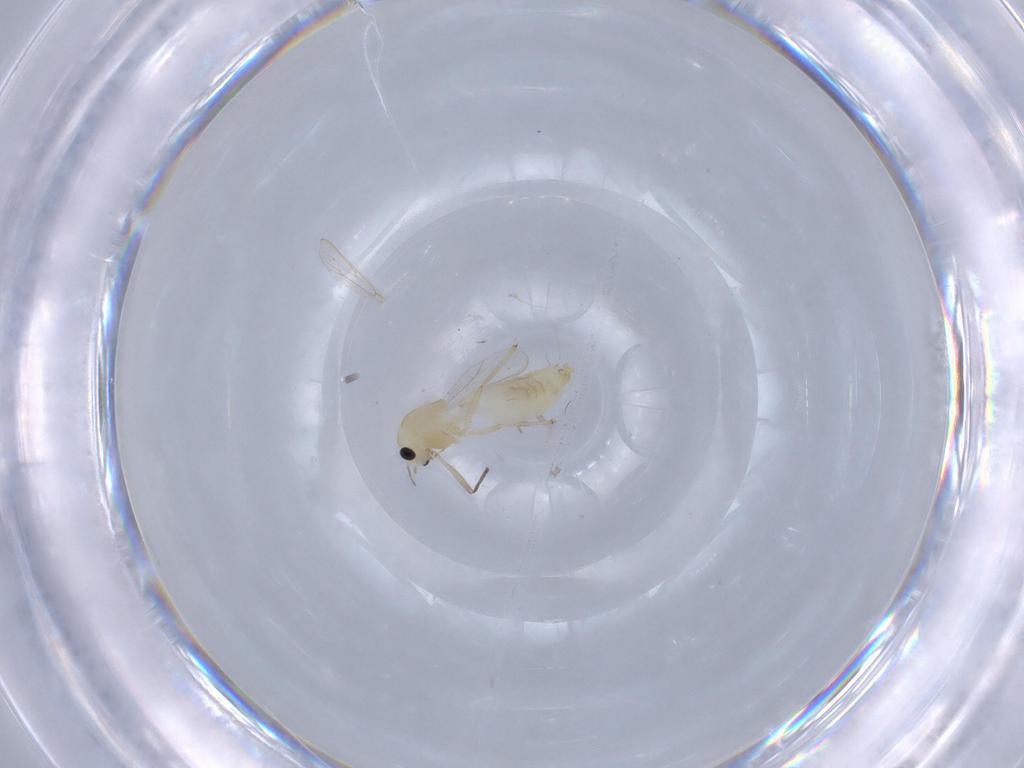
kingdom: Animalia
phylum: Arthropoda
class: Insecta
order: Diptera
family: Chironomidae
